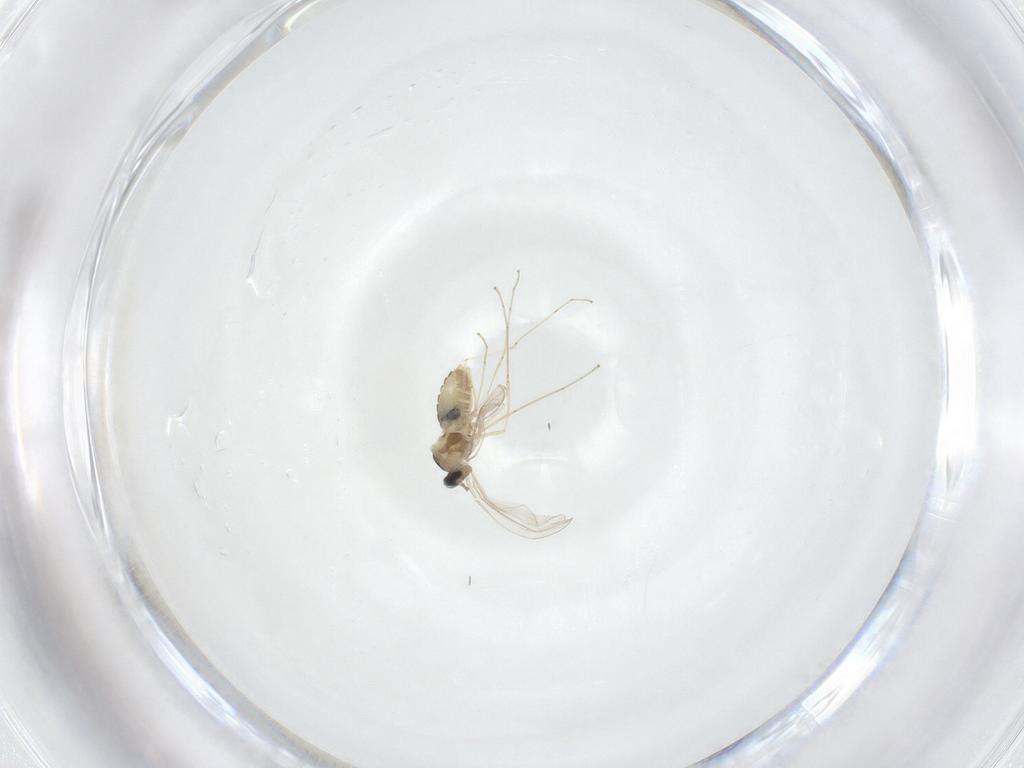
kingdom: Animalia
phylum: Arthropoda
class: Insecta
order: Diptera
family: Cecidomyiidae
